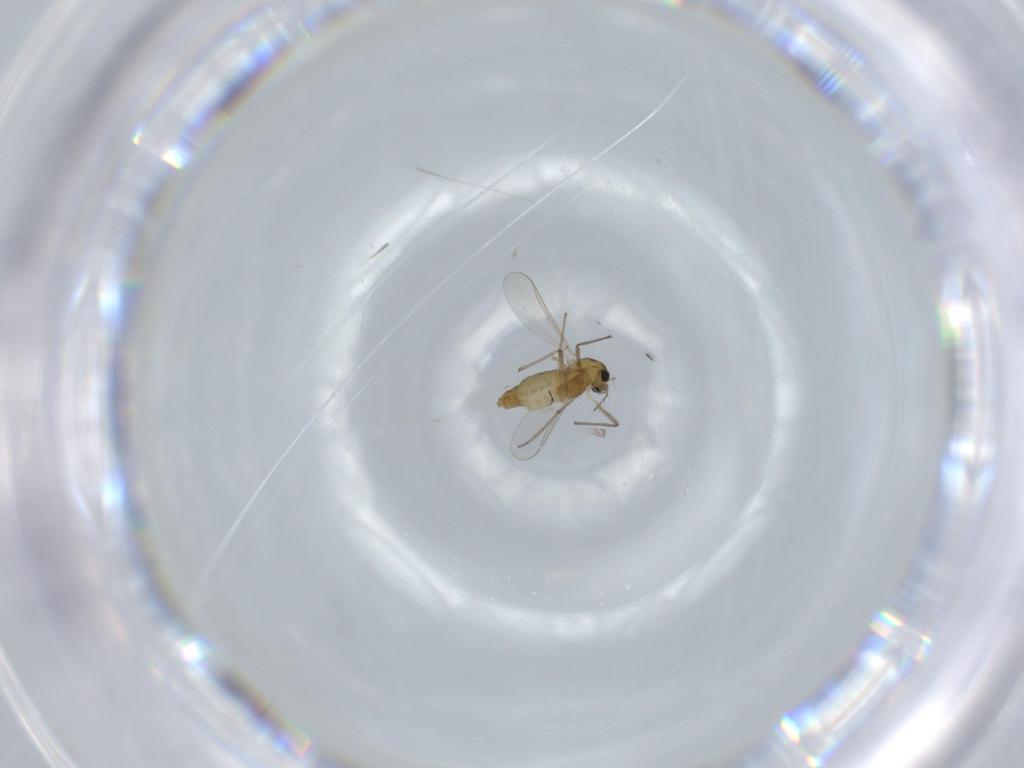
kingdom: Animalia
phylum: Arthropoda
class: Insecta
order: Diptera
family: Chironomidae
